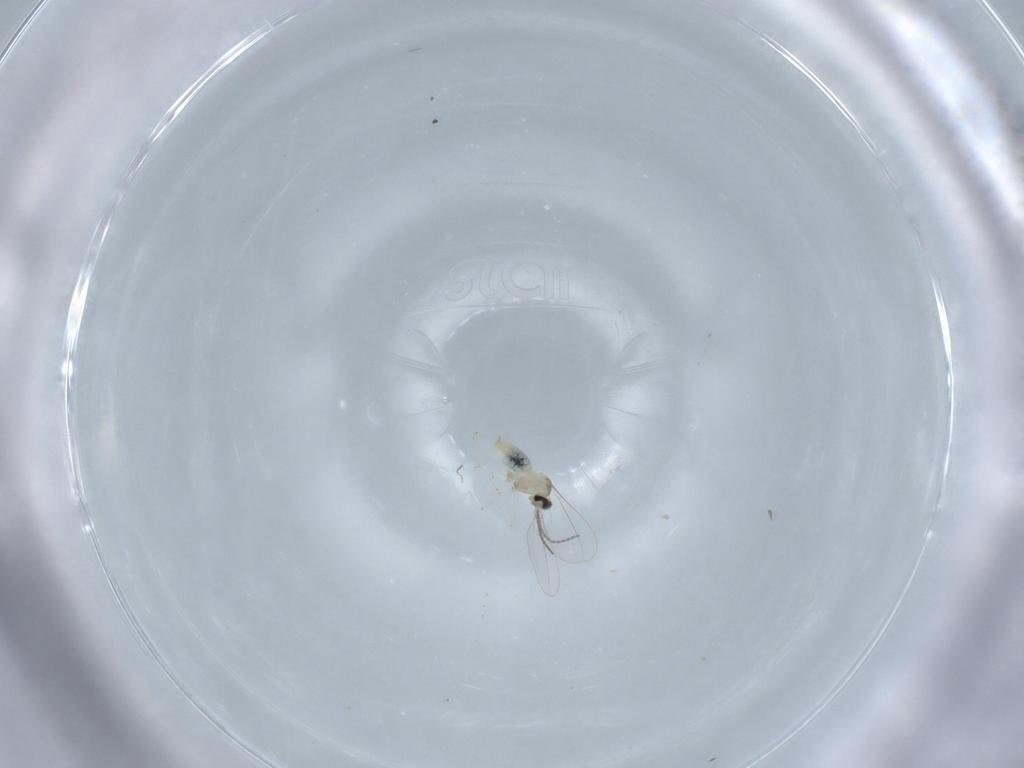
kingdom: Animalia
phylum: Arthropoda
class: Insecta
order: Diptera
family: Cecidomyiidae
